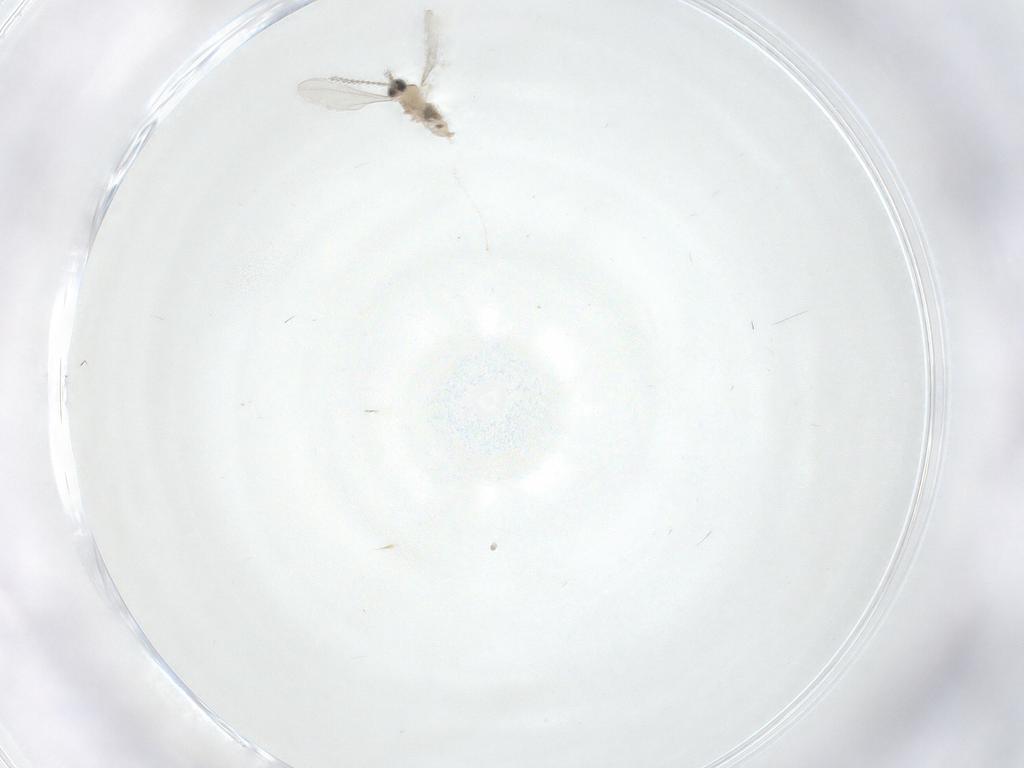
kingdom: Animalia
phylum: Arthropoda
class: Insecta
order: Diptera
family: Chironomidae
